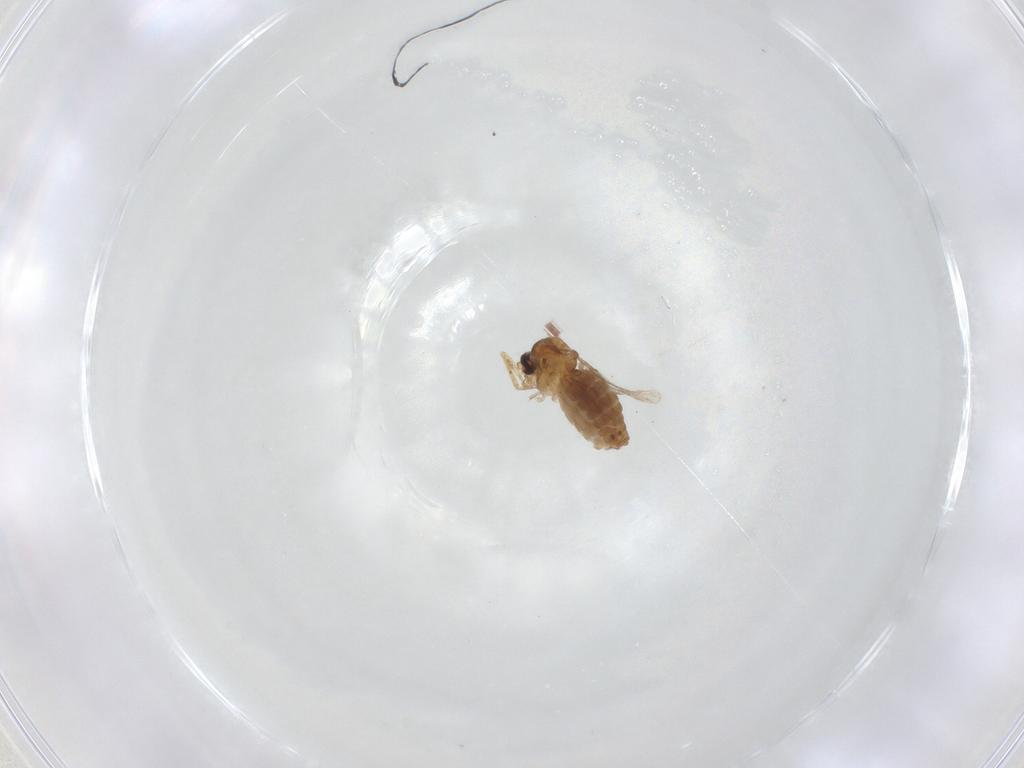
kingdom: Animalia
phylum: Arthropoda
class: Insecta
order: Diptera
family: Ceratopogonidae
